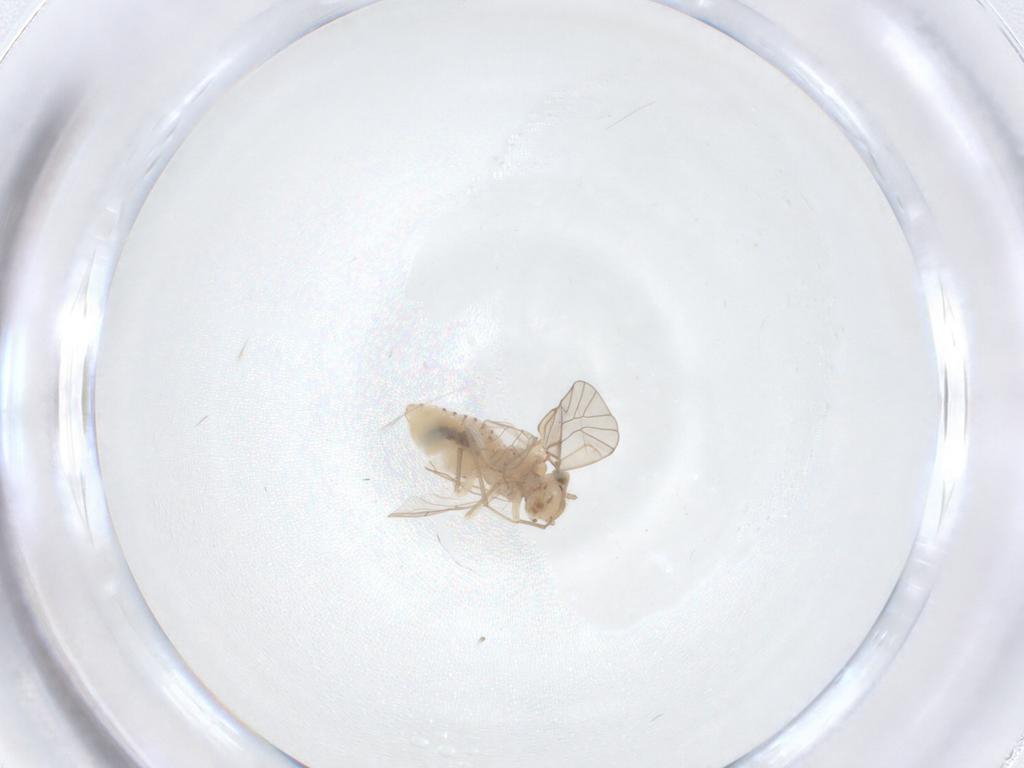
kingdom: Animalia
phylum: Arthropoda
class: Insecta
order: Psocodea
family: Lachesillidae
